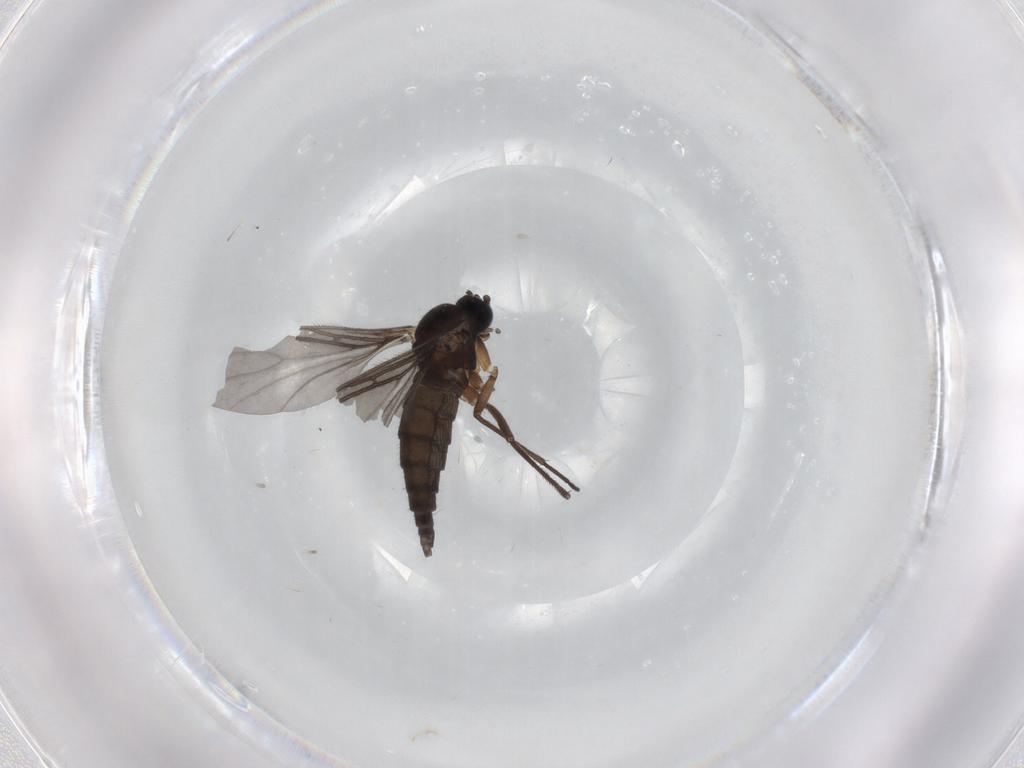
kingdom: Animalia
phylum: Arthropoda
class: Insecta
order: Diptera
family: Sciaridae
